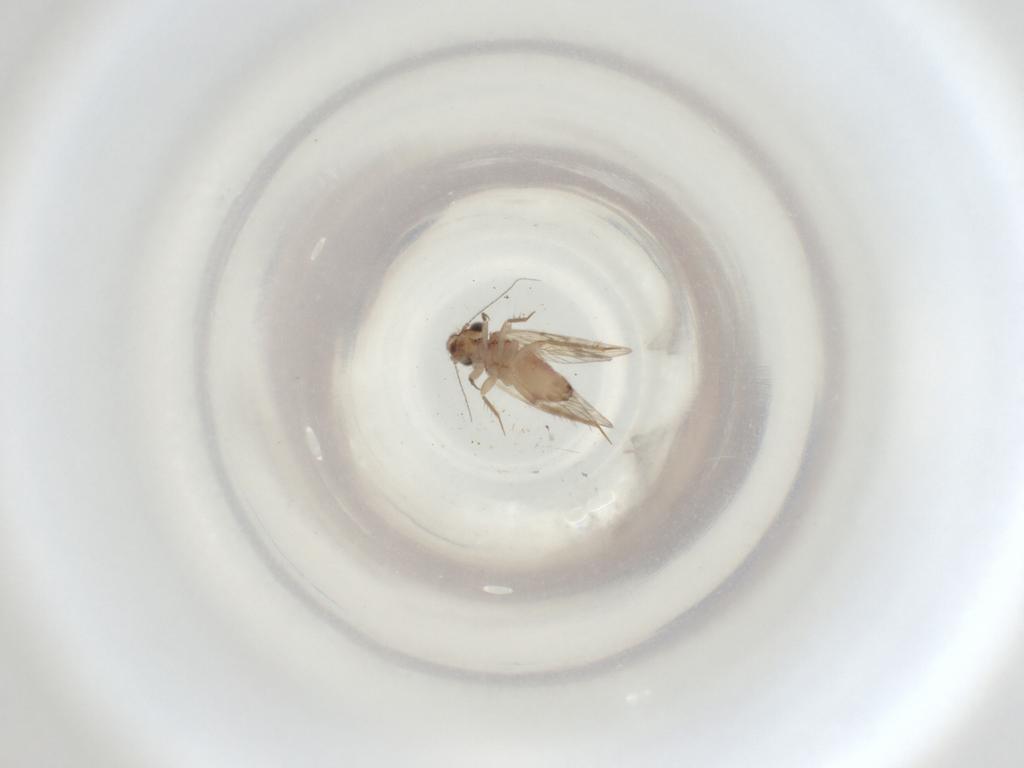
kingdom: Animalia
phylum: Arthropoda
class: Insecta
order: Psocodea
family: Lepidopsocidae
